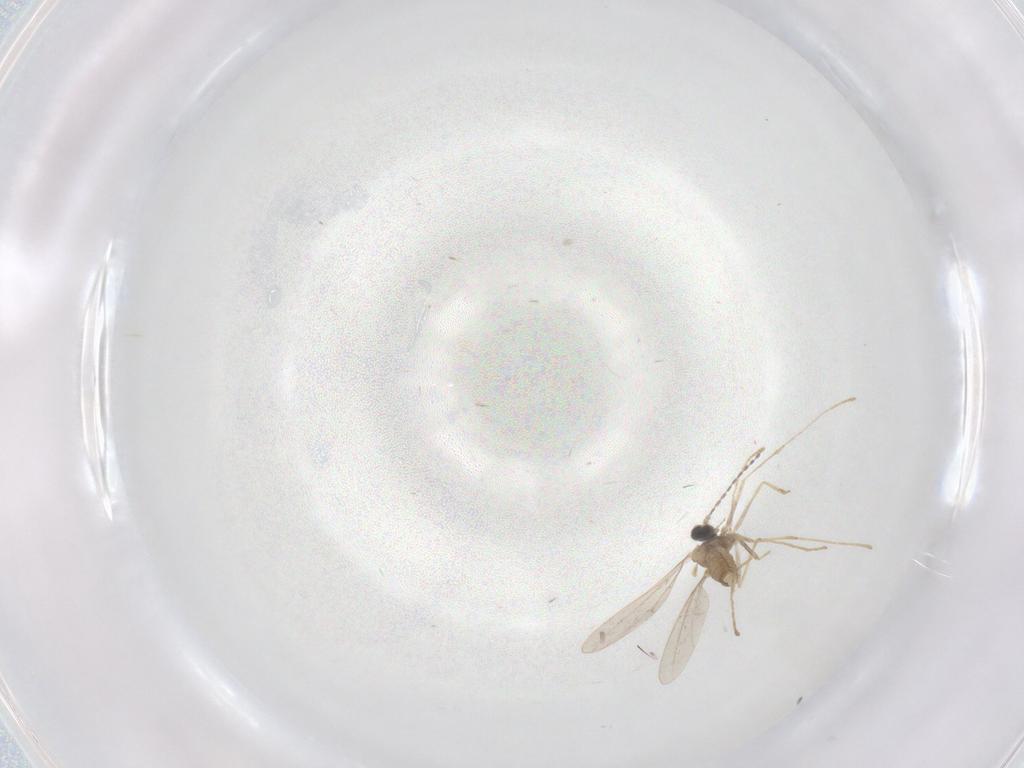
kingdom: Animalia
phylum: Arthropoda
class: Insecta
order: Diptera
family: Cecidomyiidae
